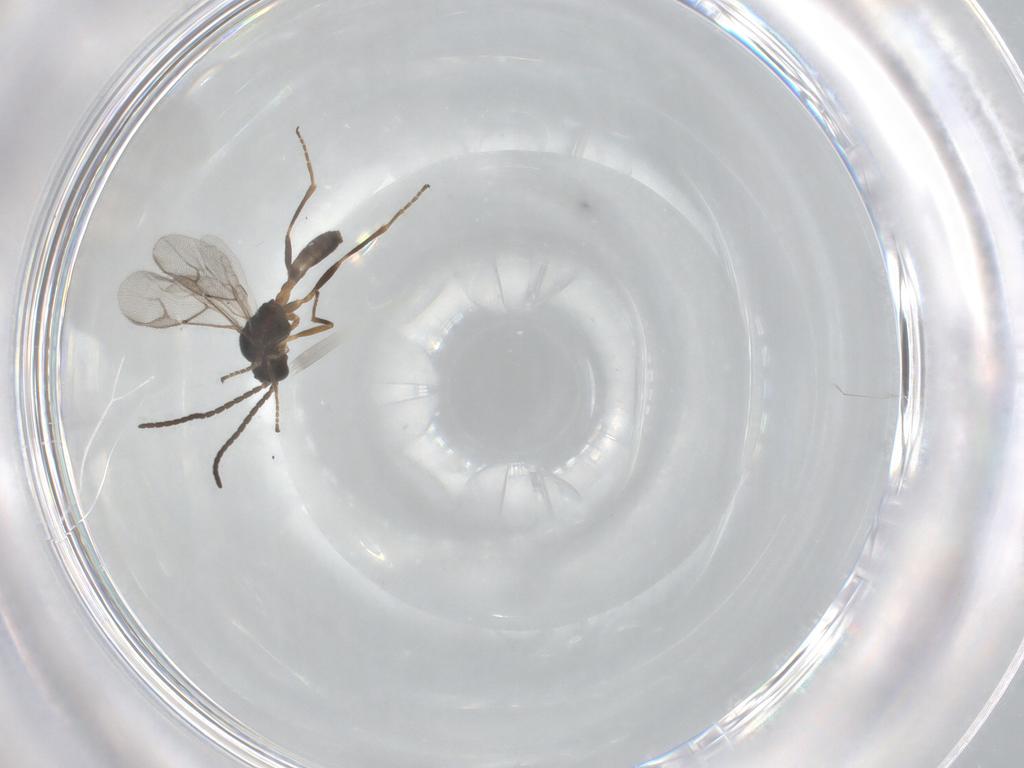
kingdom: Animalia
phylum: Arthropoda
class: Insecta
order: Hymenoptera
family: Braconidae
